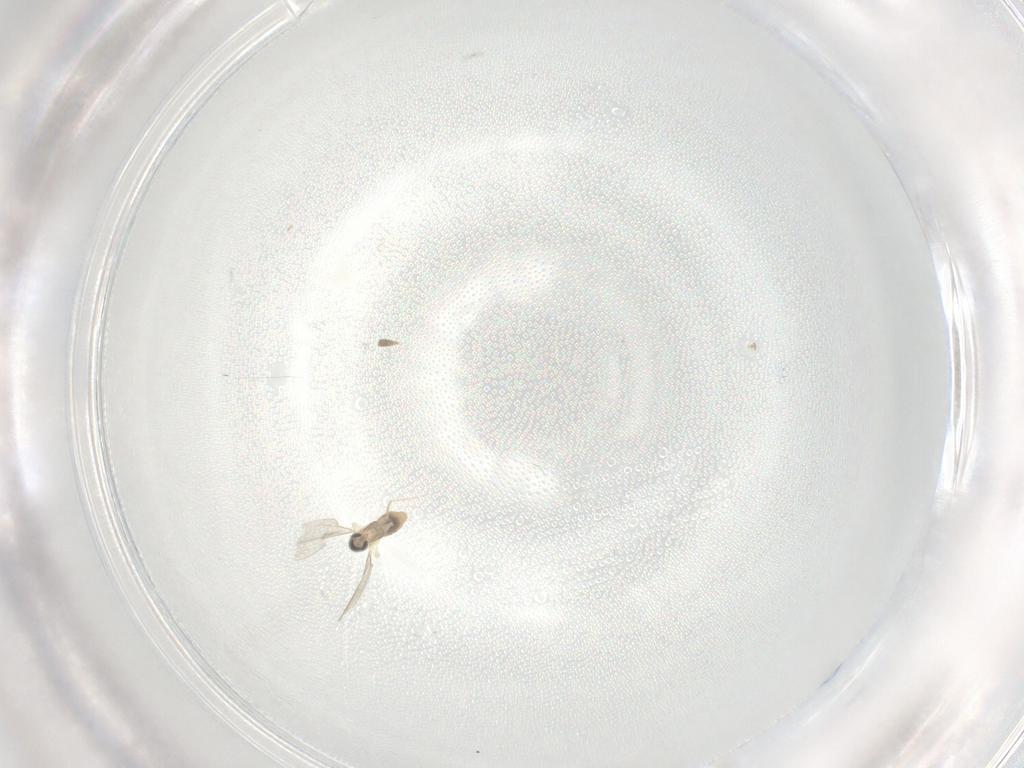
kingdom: Animalia
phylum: Arthropoda
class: Insecta
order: Diptera
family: Cecidomyiidae
